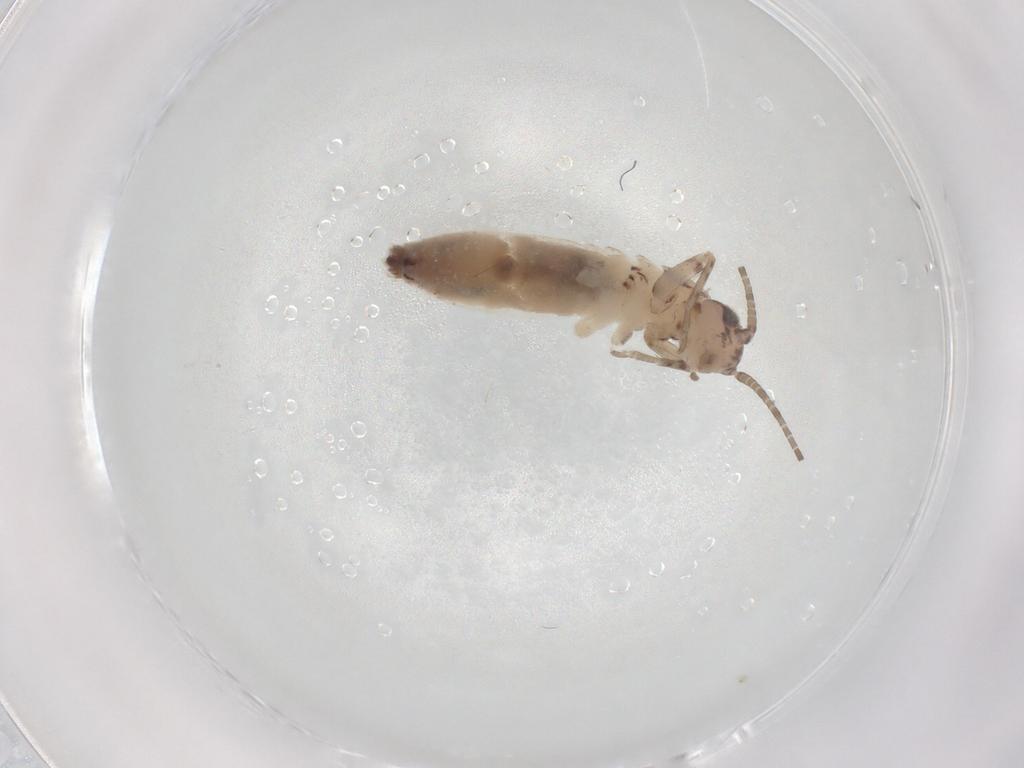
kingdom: Animalia
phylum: Arthropoda
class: Insecta
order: Orthoptera
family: Mogoplistidae
